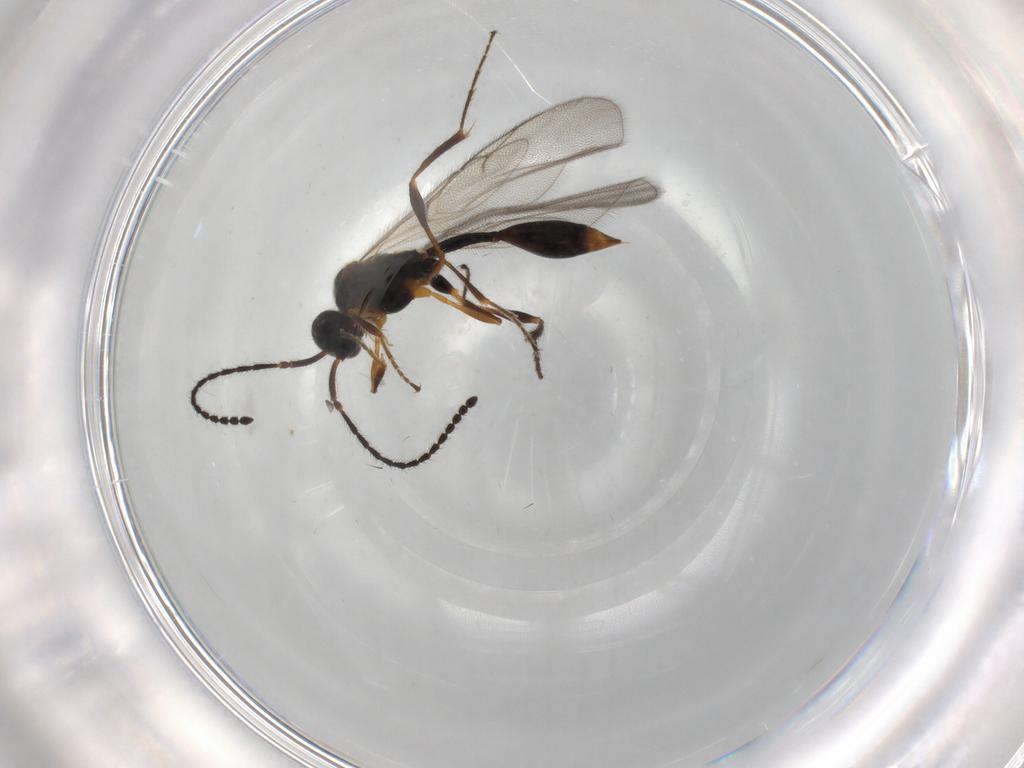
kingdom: Animalia
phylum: Arthropoda
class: Insecta
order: Hymenoptera
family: Diapriidae
